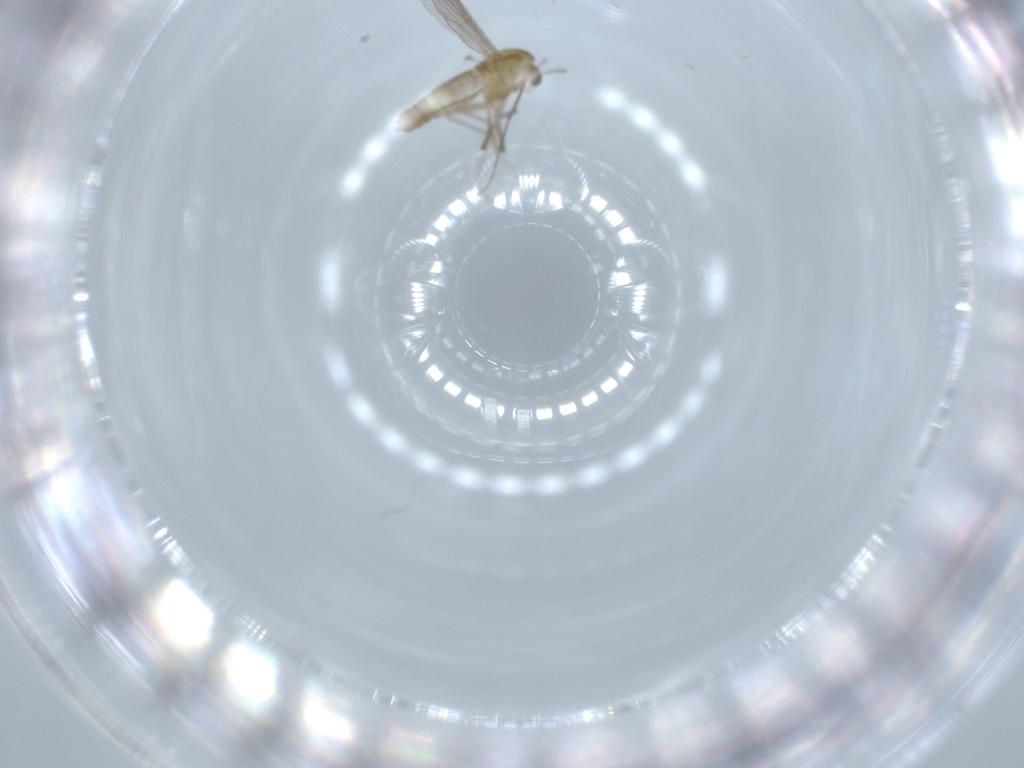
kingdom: Animalia
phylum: Arthropoda
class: Insecta
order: Diptera
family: Chironomidae
